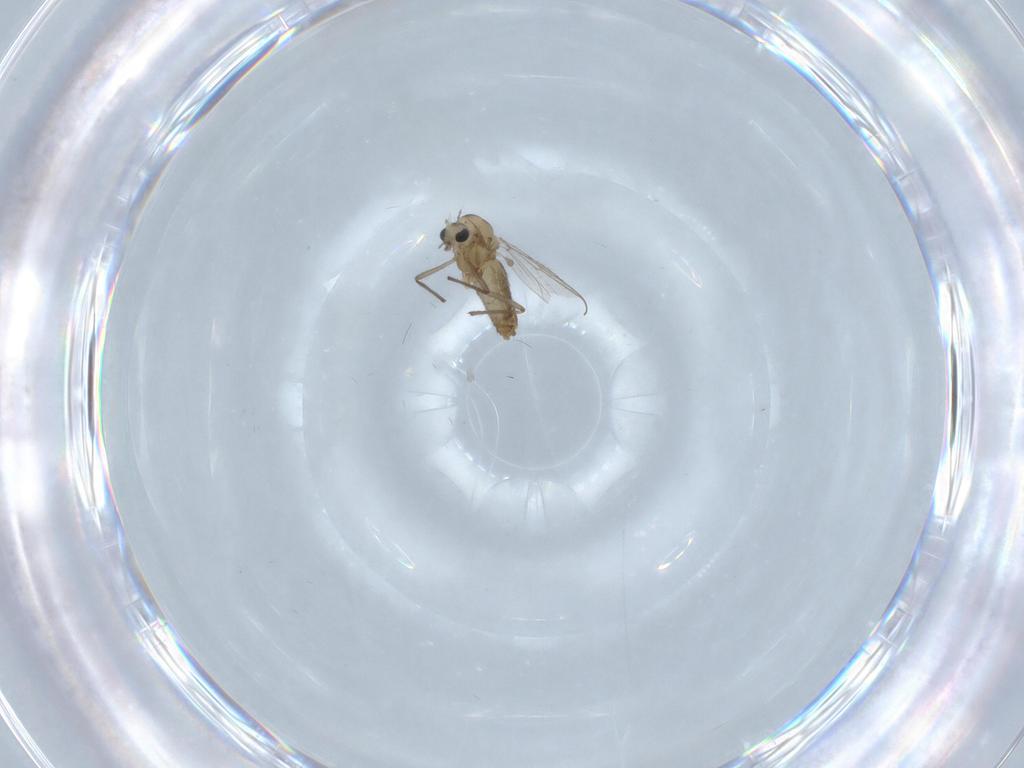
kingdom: Animalia
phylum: Arthropoda
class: Insecta
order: Diptera
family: Chironomidae
